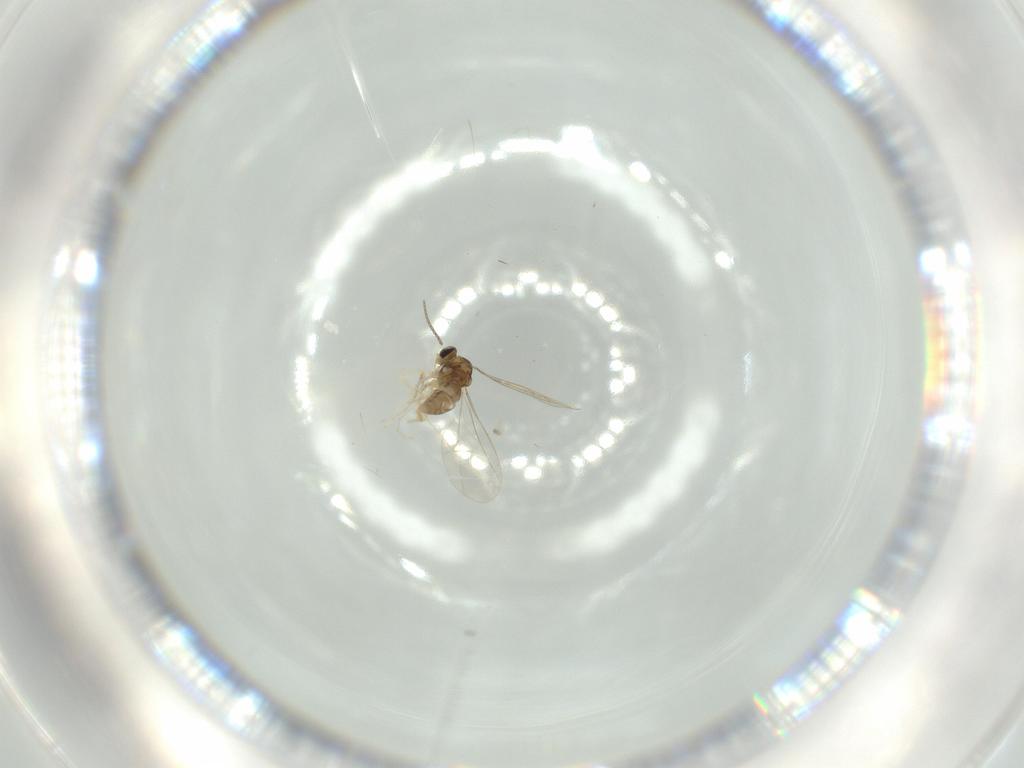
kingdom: Animalia
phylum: Arthropoda
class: Insecta
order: Diptera
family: Cecidomyiidae
